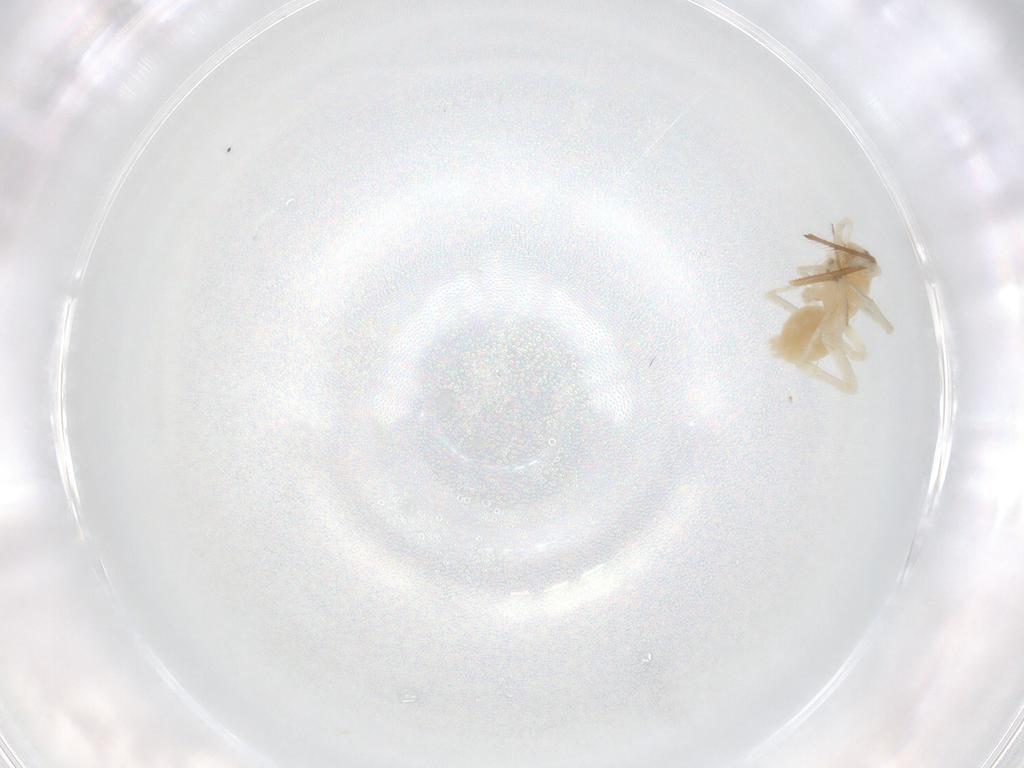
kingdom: Animalia
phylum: Arthropoda
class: Arachnida
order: Araneae
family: Anyphaenidae
